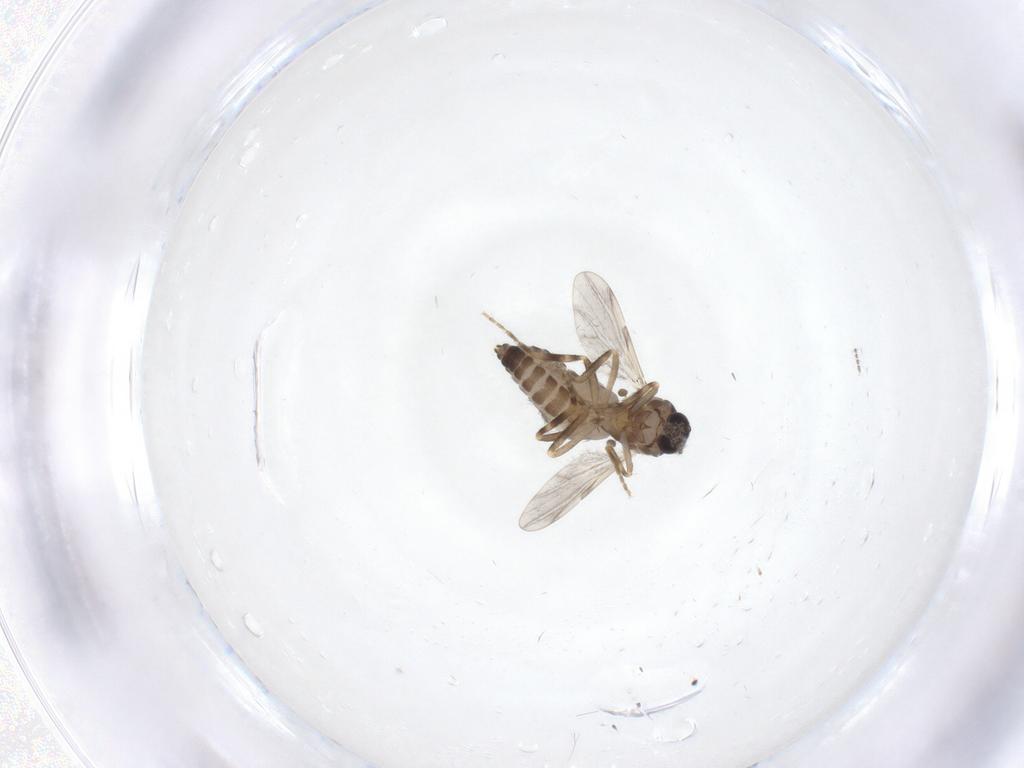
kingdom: Animalia
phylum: Arthropoda
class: Insecta
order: Diptera
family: Ceratopogonidae
